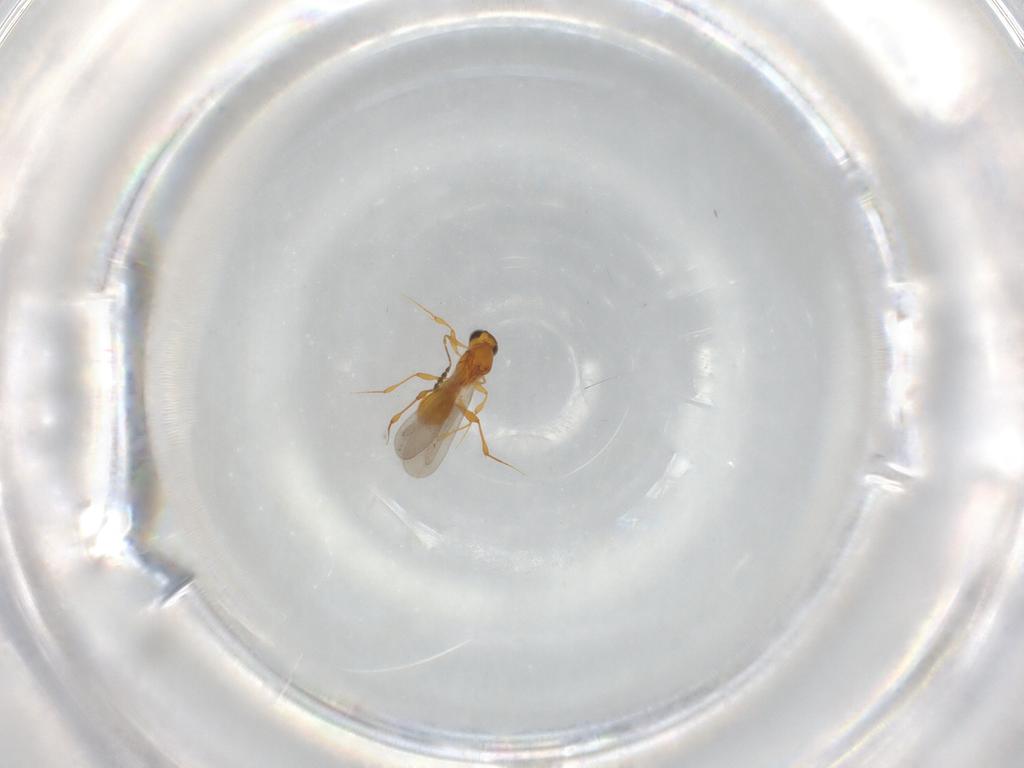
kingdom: Animalia
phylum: Arthropoda
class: Insecta
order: Hymenoptera
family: Platygastridae
